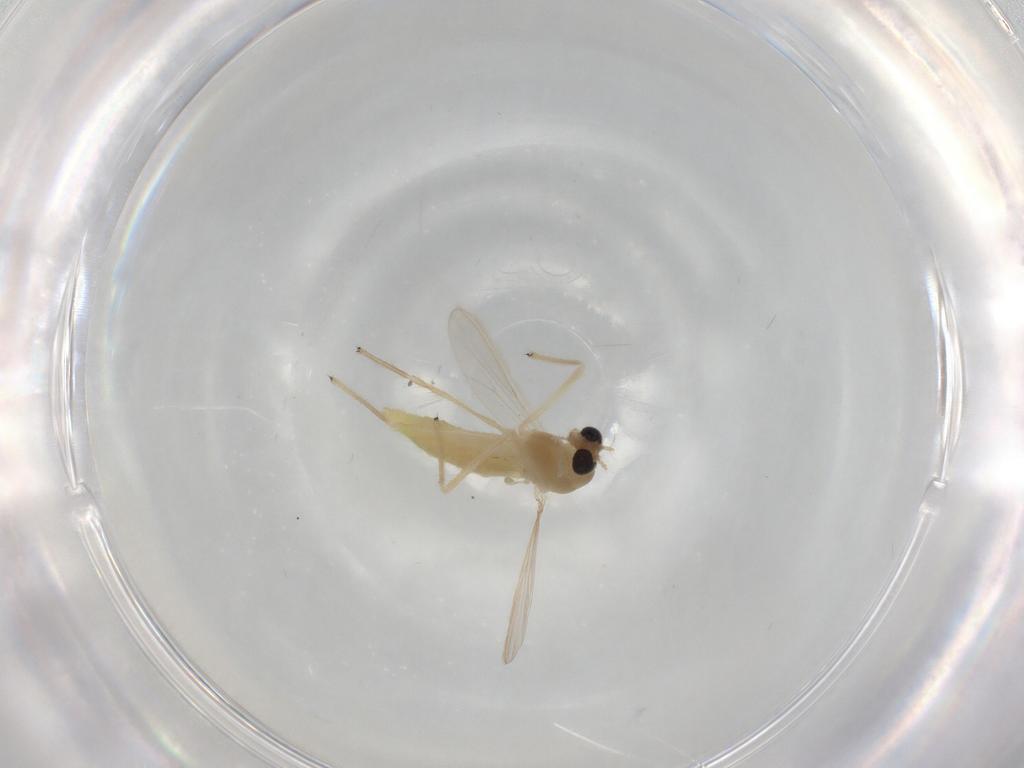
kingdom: Animalia
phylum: Arthropoda
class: Insecta
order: Diptera
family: Chironomidae
